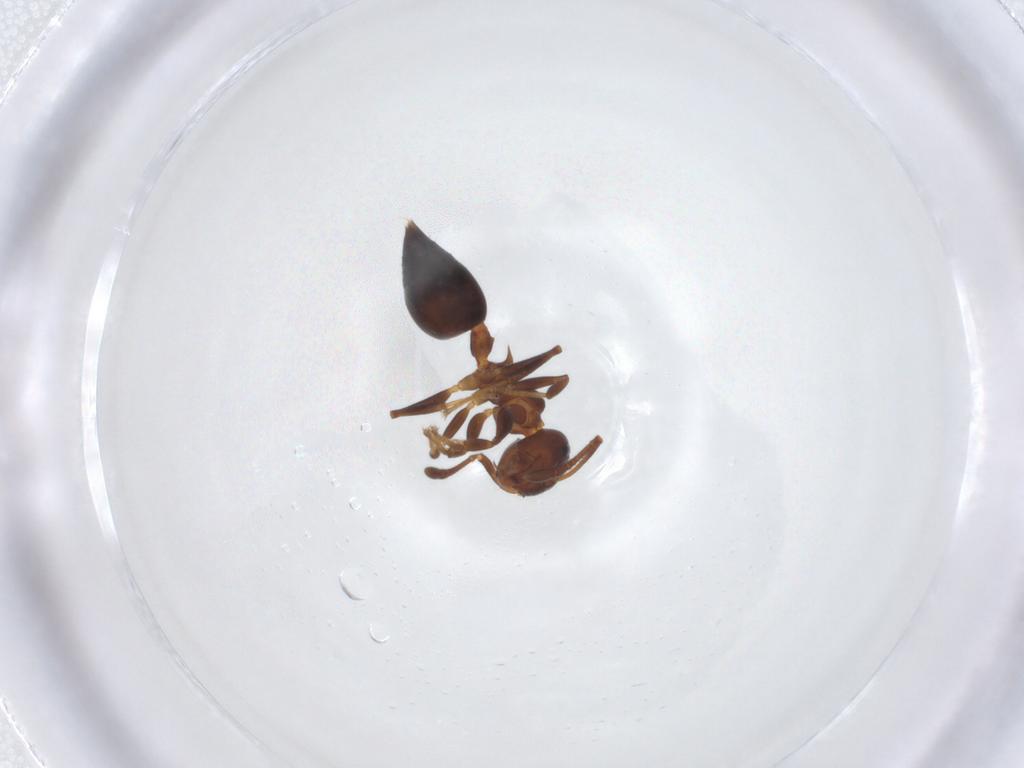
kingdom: Animalia
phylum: Arthropoda
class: Insecta
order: Hymenoptera
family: Formicidae
